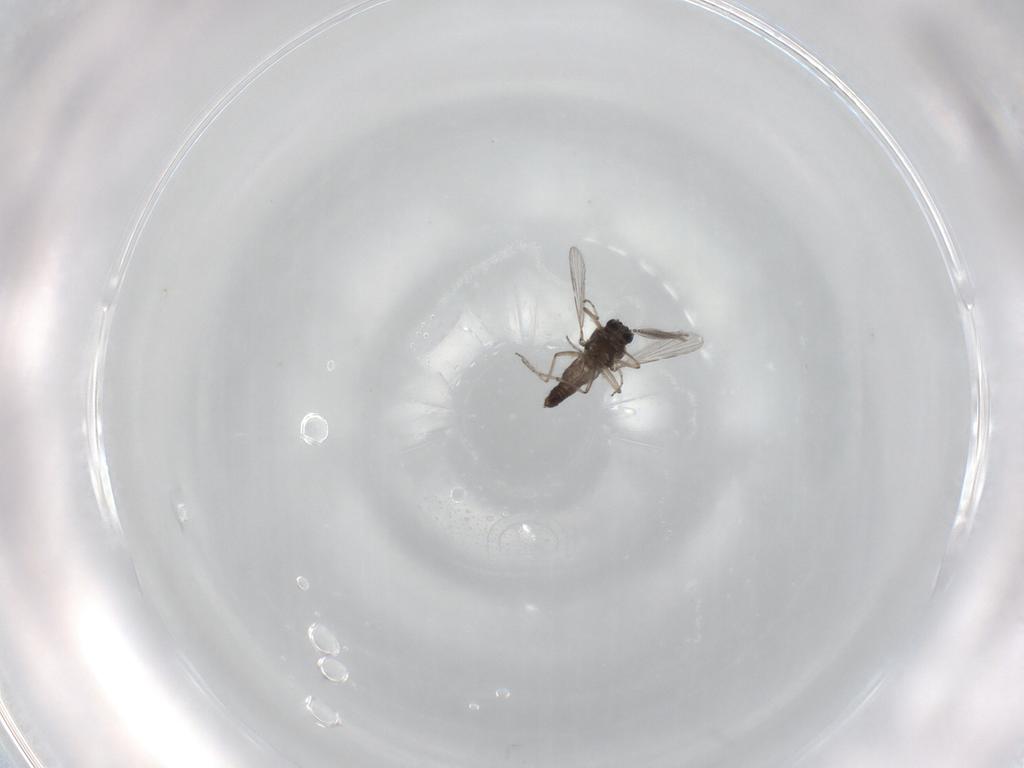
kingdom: Animalia
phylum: Arthropoda
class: Insecta
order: Diptera
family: Ceratopogonidae
